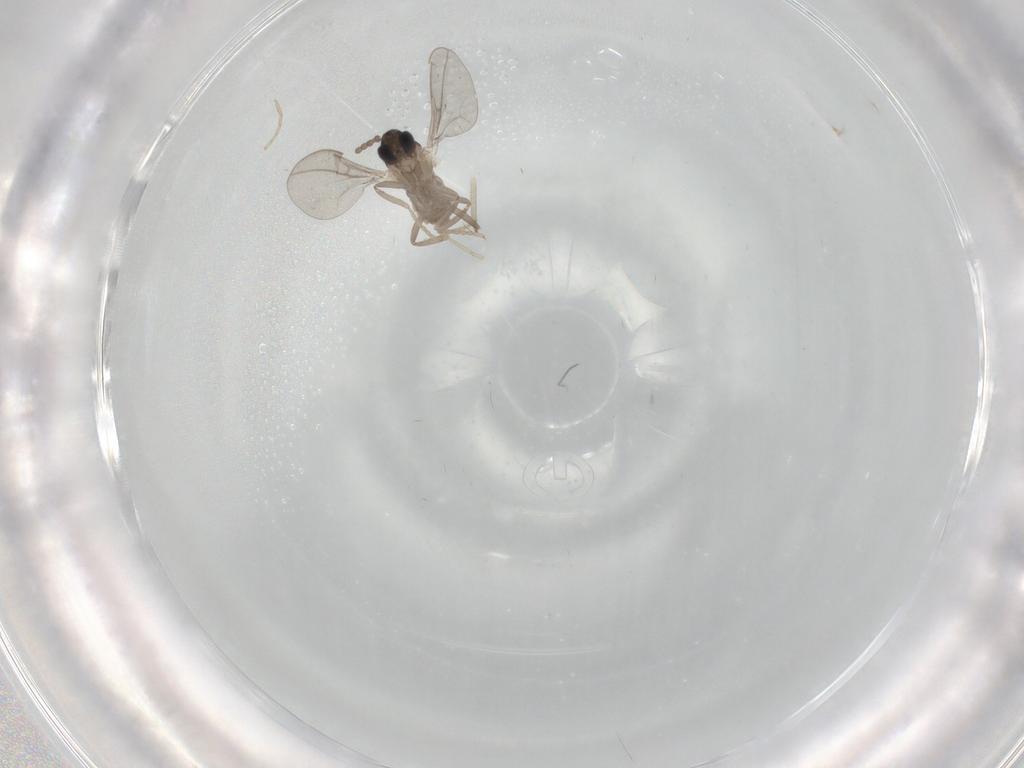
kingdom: Animalia
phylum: Arthropoda
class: Insecta
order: Diptera
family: Cecidomyiidae
